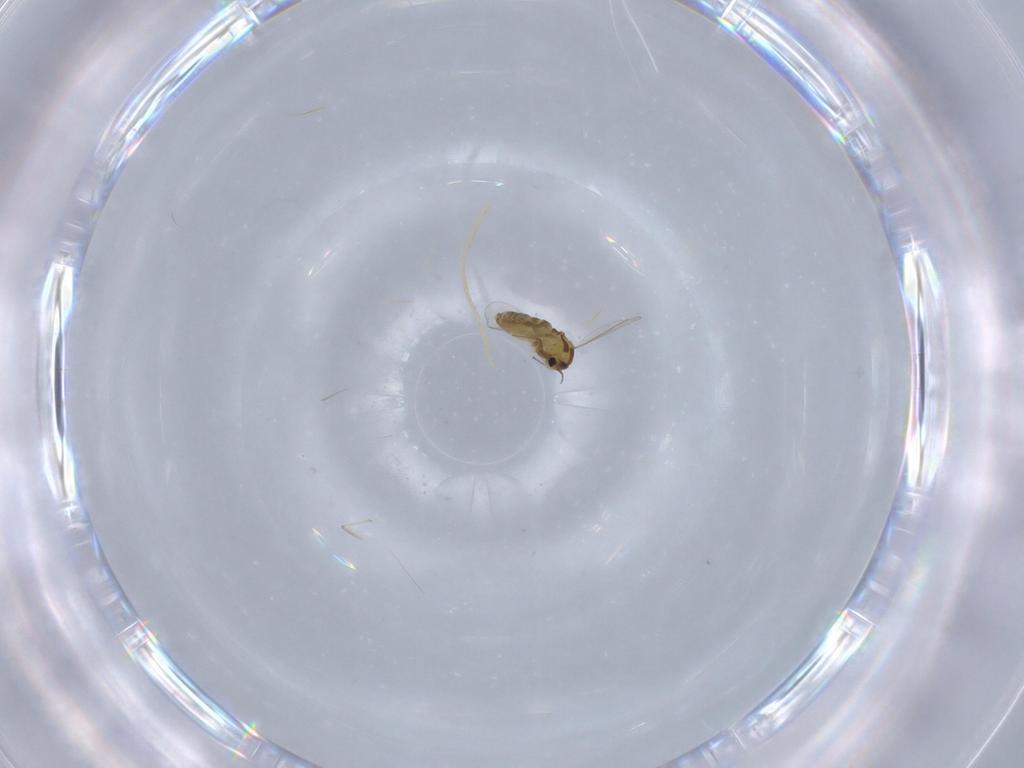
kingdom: Animalia
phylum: Arthropoda
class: Insecta
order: Diptera
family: Chironomidae
